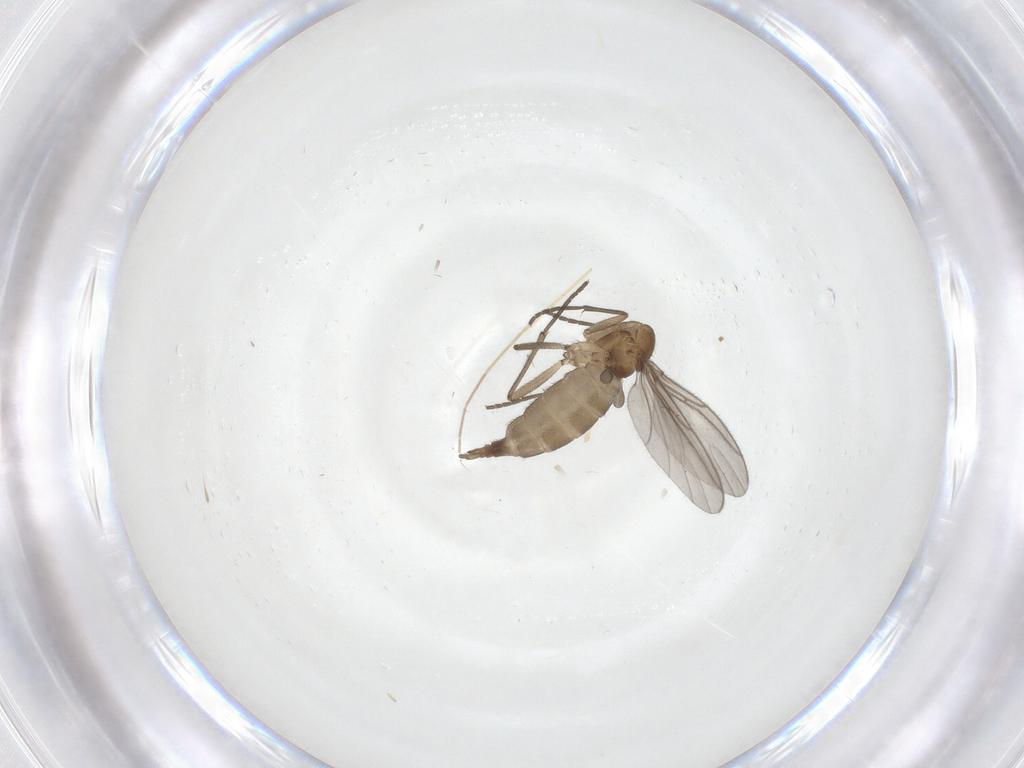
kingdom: Animalia
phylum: Arthropoda
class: Insecta
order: Diptera
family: Sciaridae
